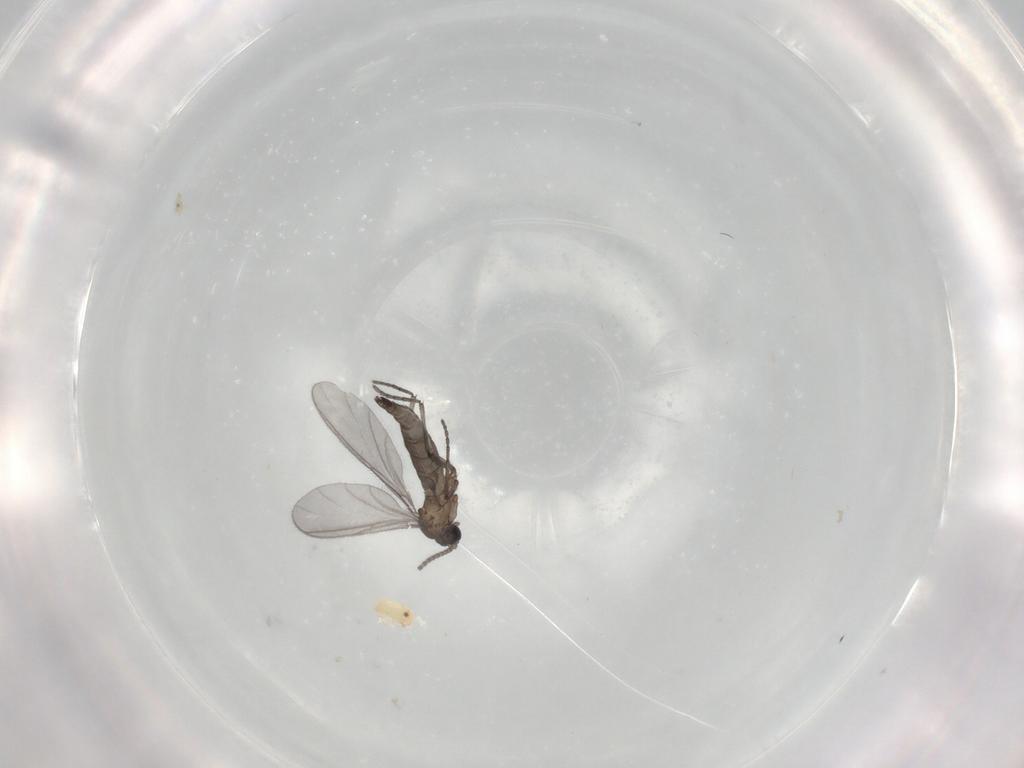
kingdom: Animalia
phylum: Arthropoda
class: Insecta
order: Diptera
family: Sciaridae
